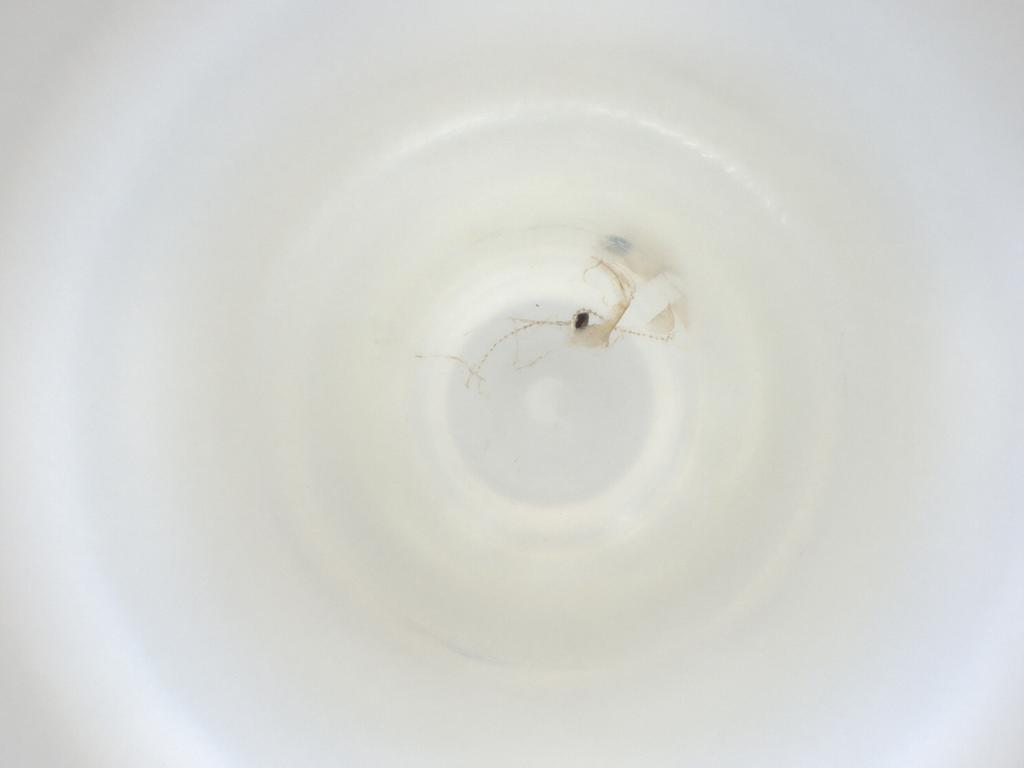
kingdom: Animalia
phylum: Arthropoda
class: Insecta
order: Diptera
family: Cecidomyiidae
